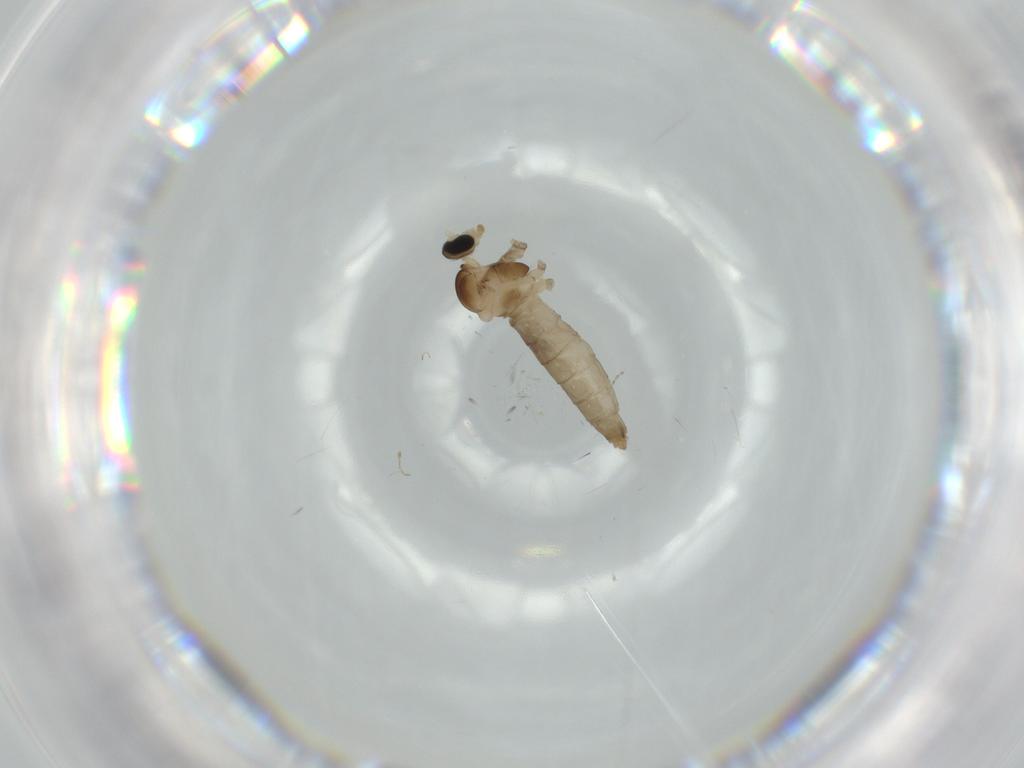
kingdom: Animalia
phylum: Arthropoda
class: Insecta
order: Diptera
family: Cecidomyiidae
